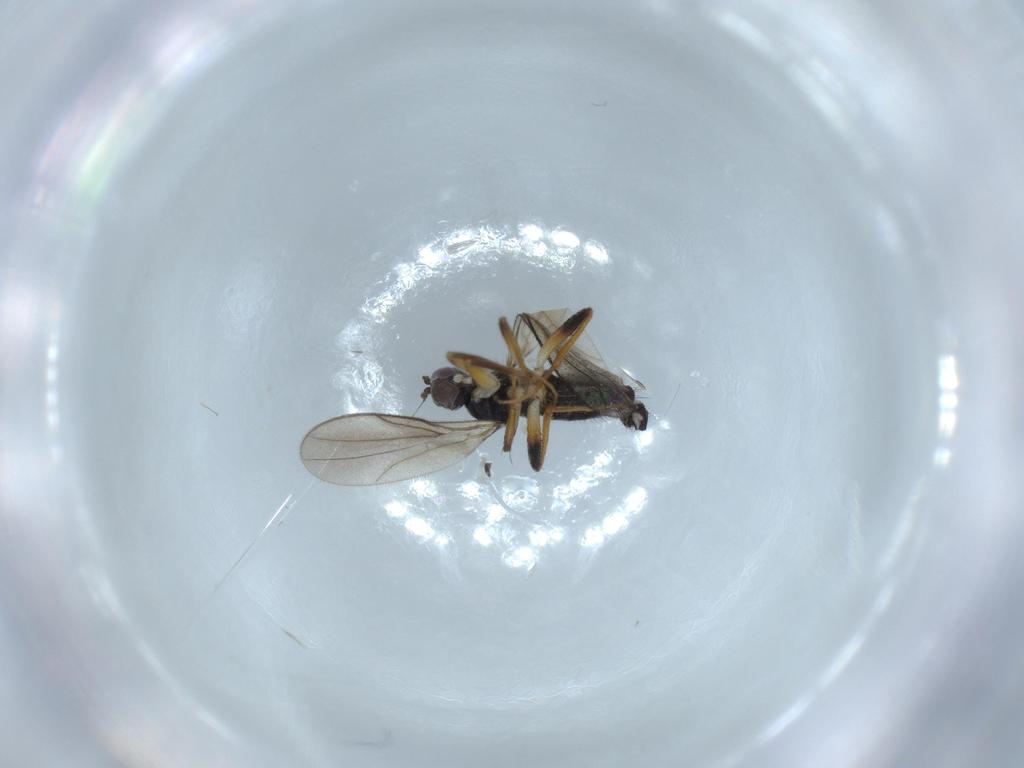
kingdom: Animalia
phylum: Arthropoda
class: Insecta
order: Diptera
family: Hybotidae
